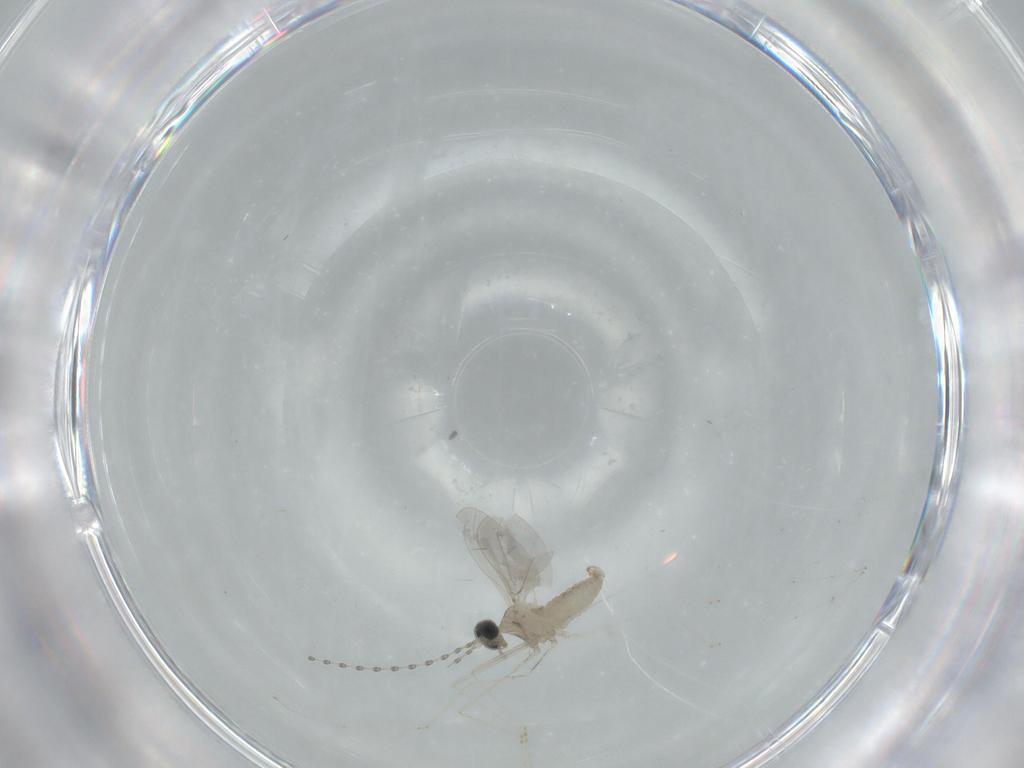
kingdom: Animalia
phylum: Arthropoda
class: Insecta
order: Diptera
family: Cecidomyiidae
